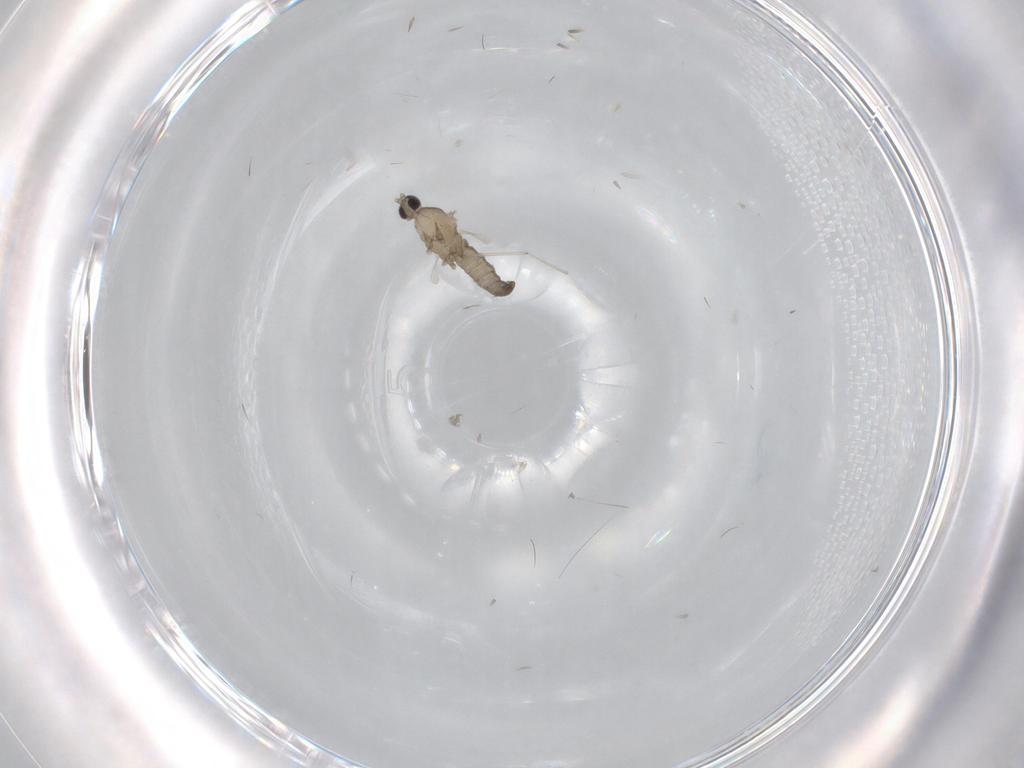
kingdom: Animalia
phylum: Arthropoda
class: Insecta
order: Diptera
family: Cecidomyiidae
